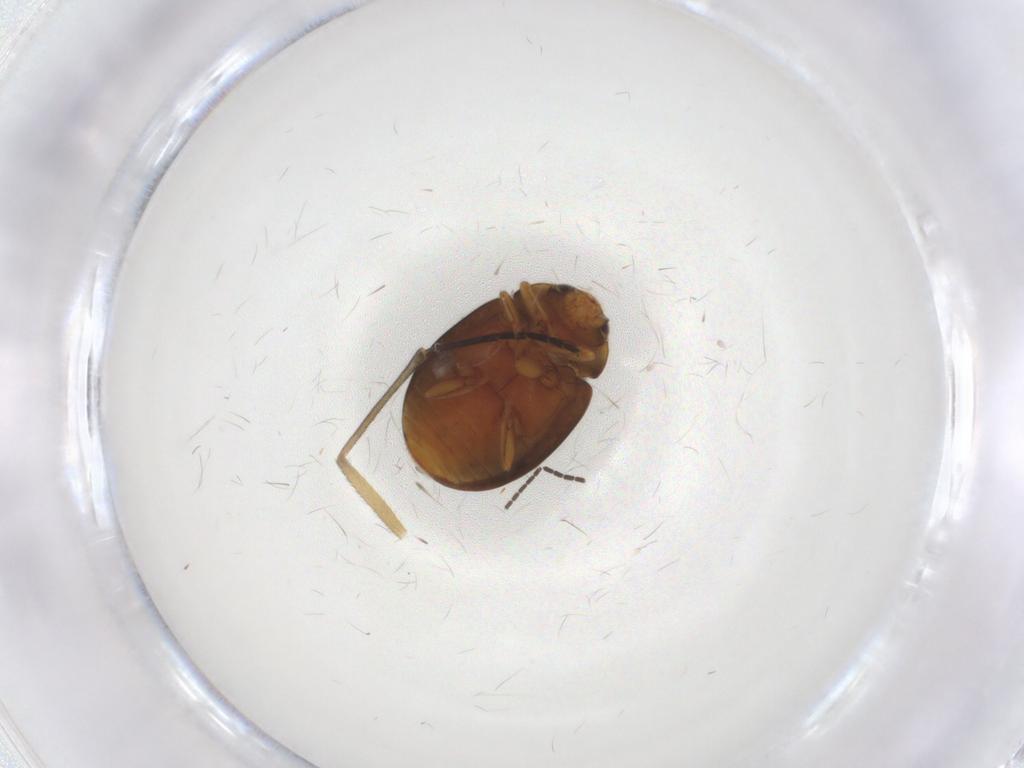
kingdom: Animalia
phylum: Arthropoda
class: Insecta
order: Coleoptera
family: Coccinellidae
